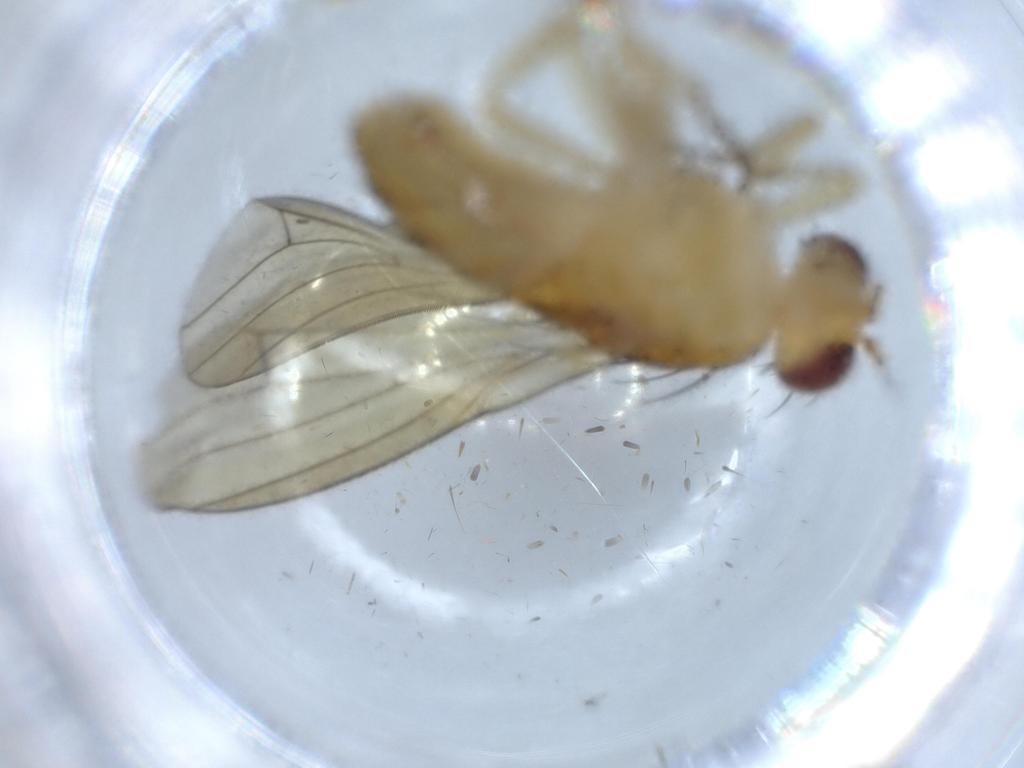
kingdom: Animalia
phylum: Arthropoda
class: Insecta
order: Diptera
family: Chironomidae
